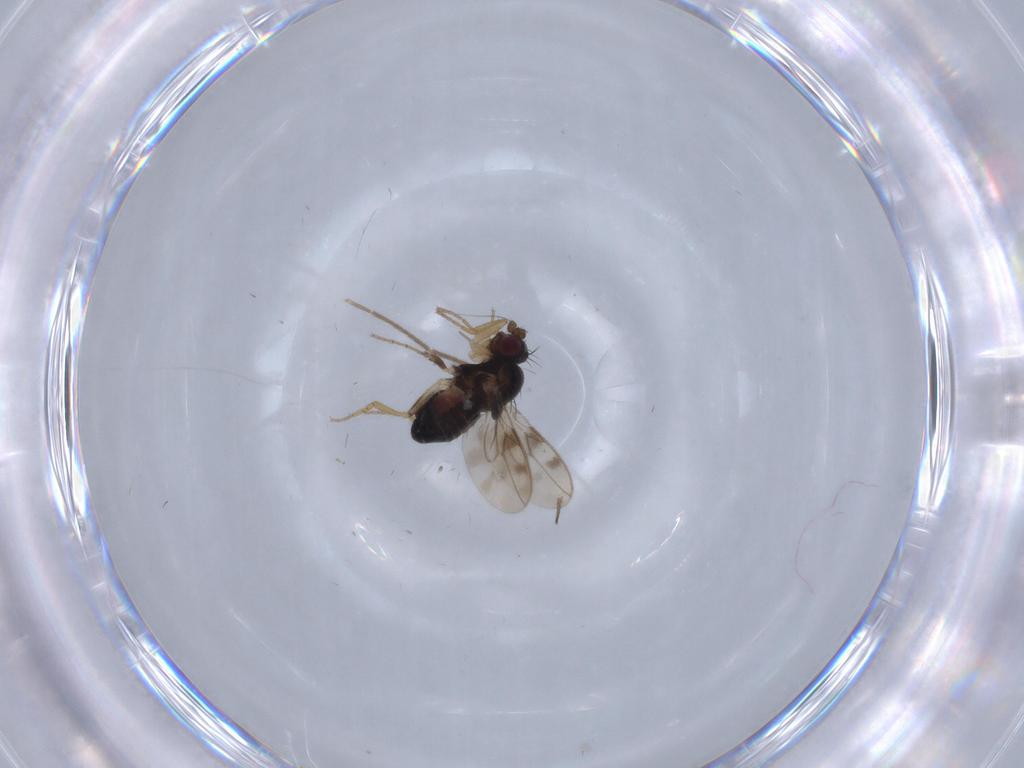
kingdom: Animalia
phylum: Arthropoda
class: Insecta
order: Diptera
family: Sphaeroceridae
